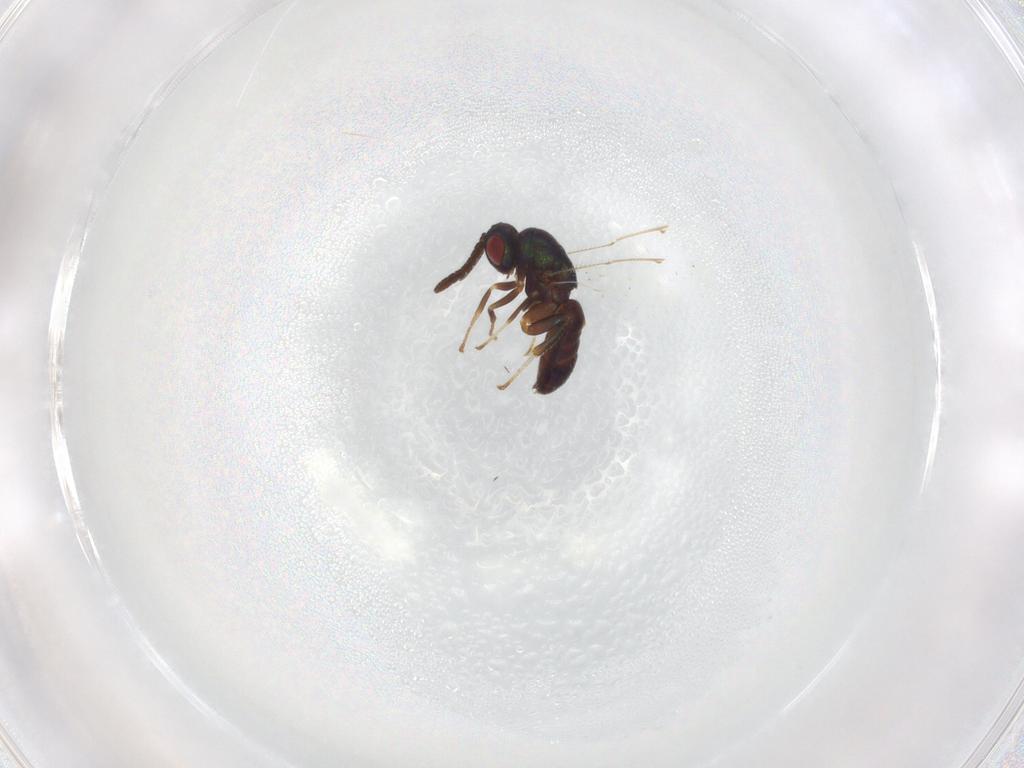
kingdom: Animalia
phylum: Arthropoda
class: Insecta
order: Hymenoptera
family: Ormyridae
